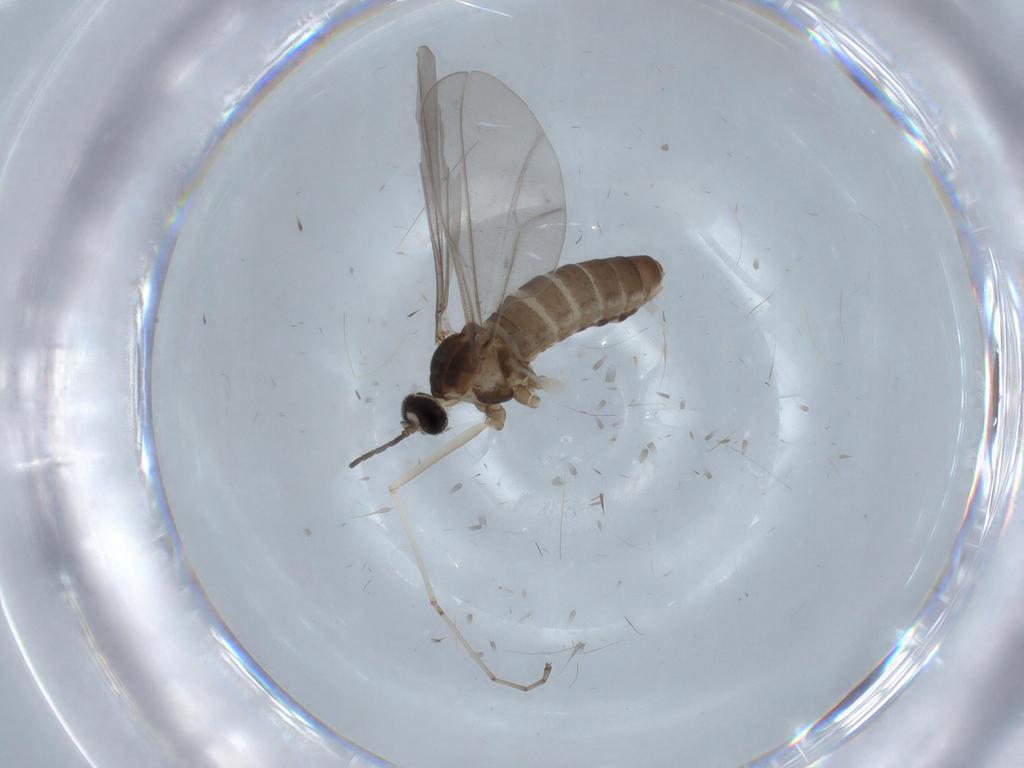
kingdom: Animalia
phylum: Arthropoda
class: Insecta
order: Diptera
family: Cecidomyiidae
